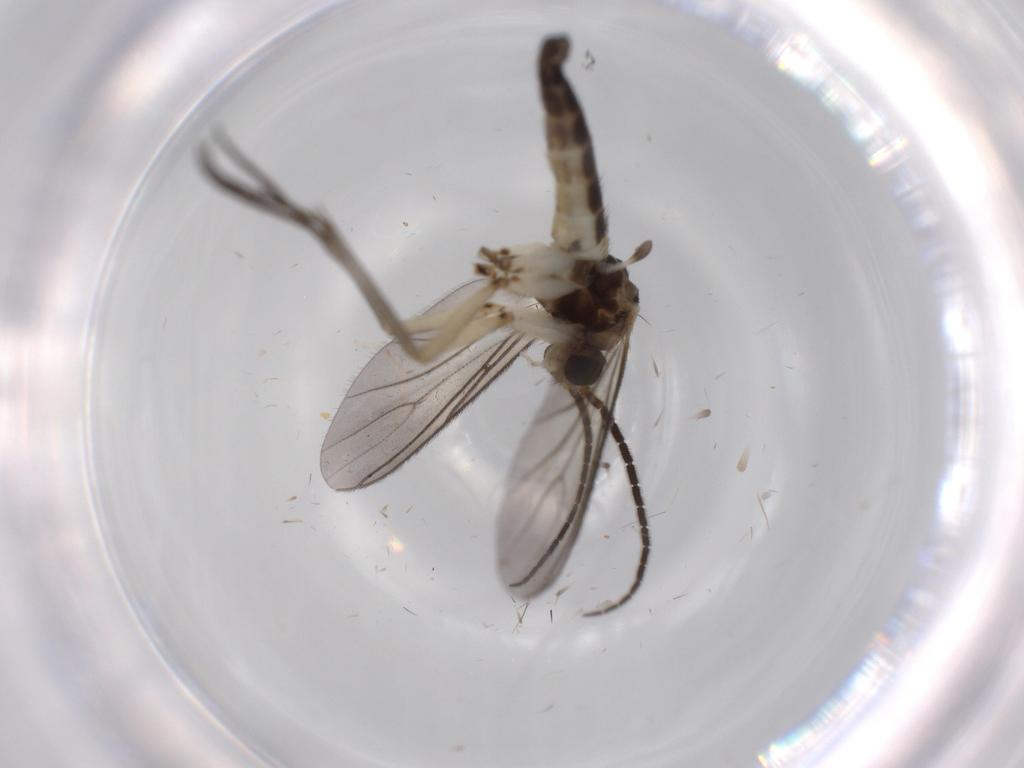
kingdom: Animalia
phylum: Arthropoda
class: Insecta
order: Diptera
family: Sciaridae
